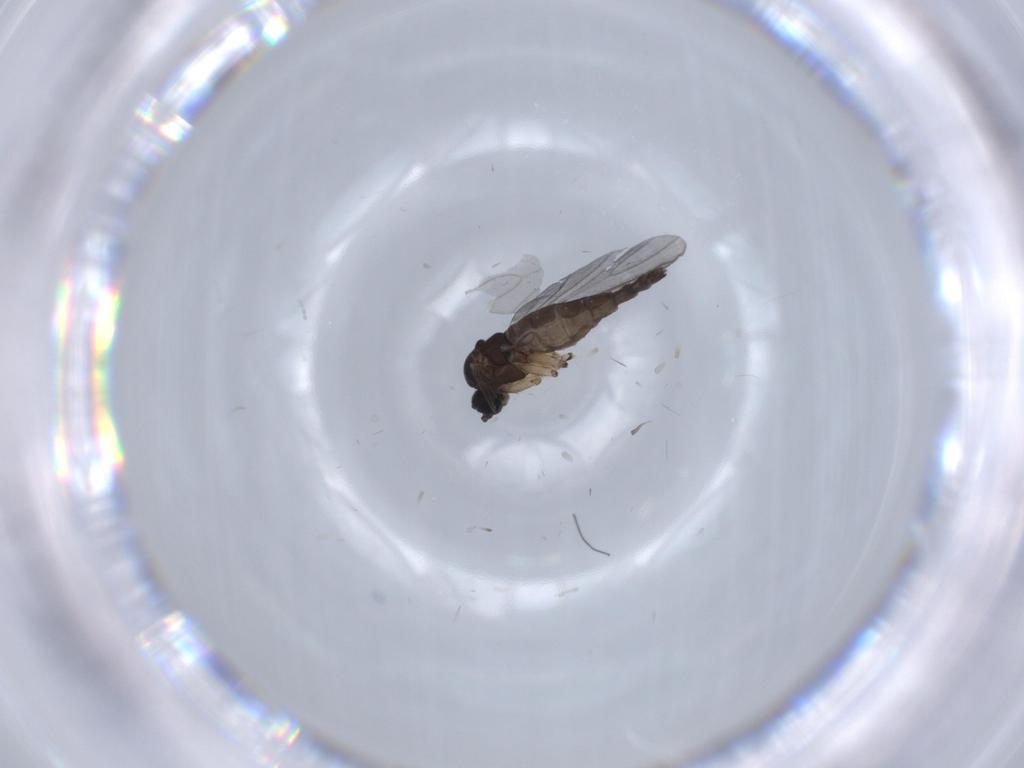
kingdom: Animalia
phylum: Arthropoda
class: Insecta
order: Diptera
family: Sciaridae
